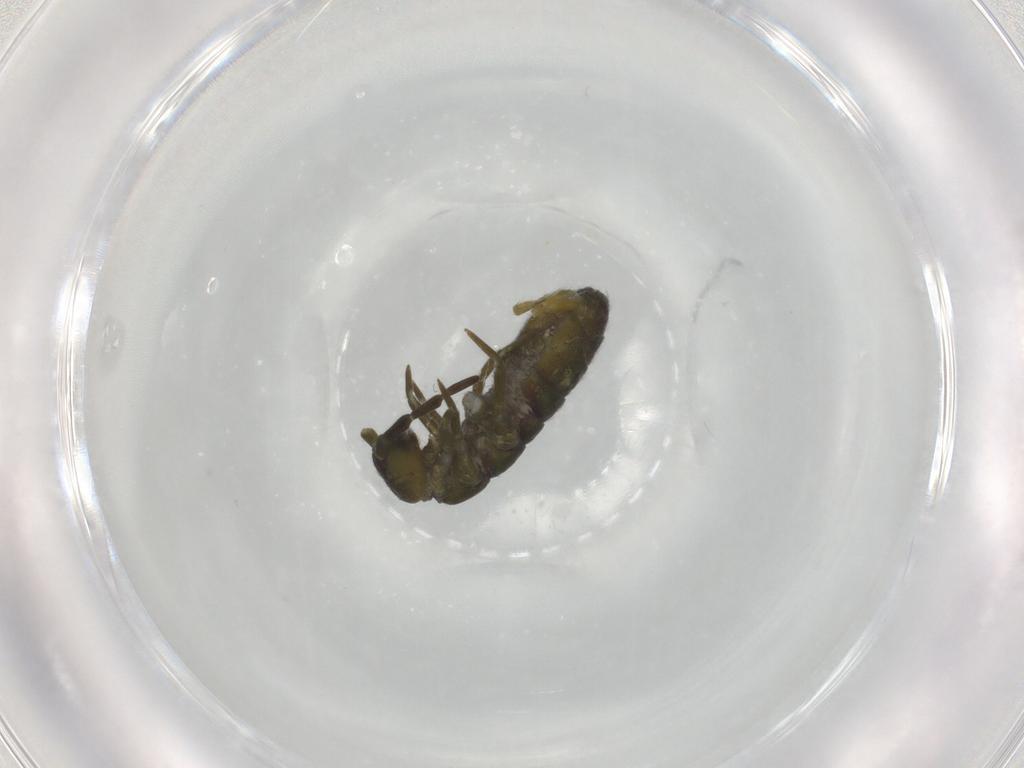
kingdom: Animalia
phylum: Arthropoda
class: Collembola
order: Entomobryomorpha
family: Isotomidae
